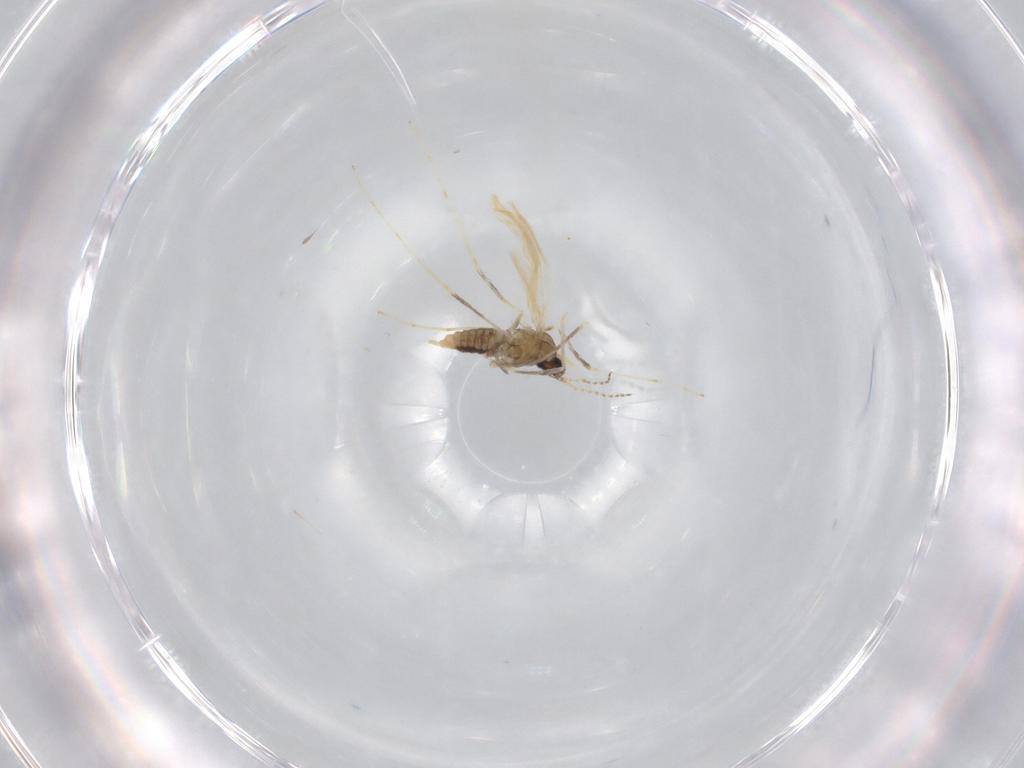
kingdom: Animalia
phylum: Arthropoda
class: Insecta
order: Diptera
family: Cecidomyiidae
